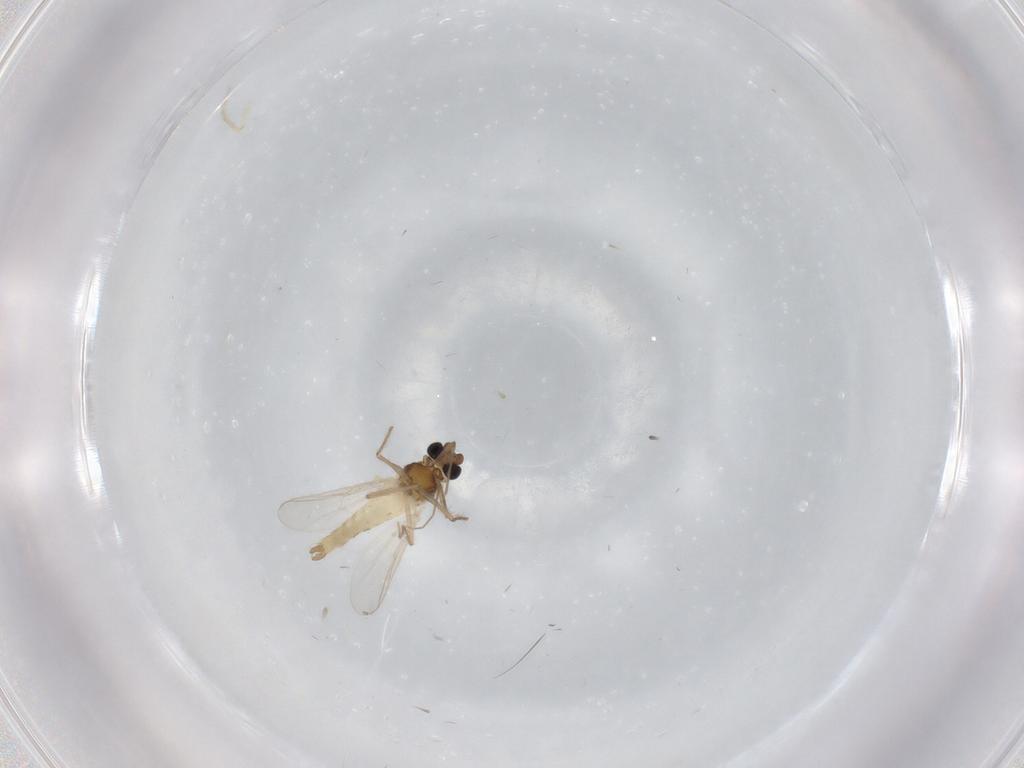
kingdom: Animalia
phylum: Arthropoda
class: Insecta
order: Diptera
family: Chironomidae
